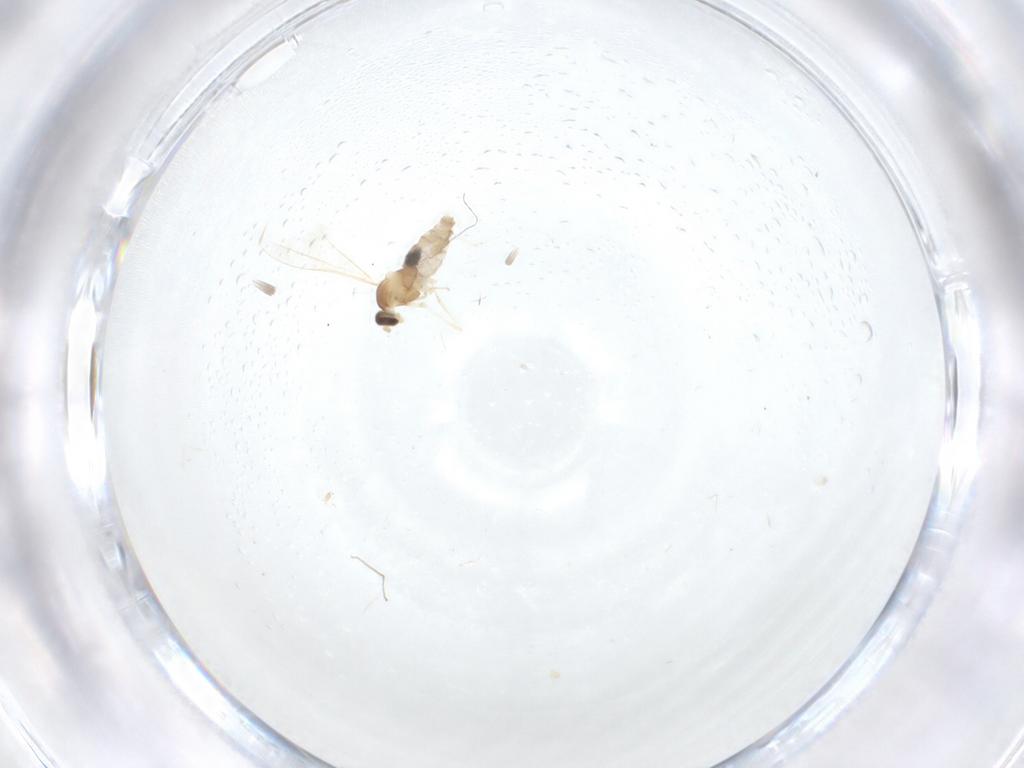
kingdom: Animalia
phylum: Arthropoda
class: Insecta
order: Diptera
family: Cecidomyiidae
